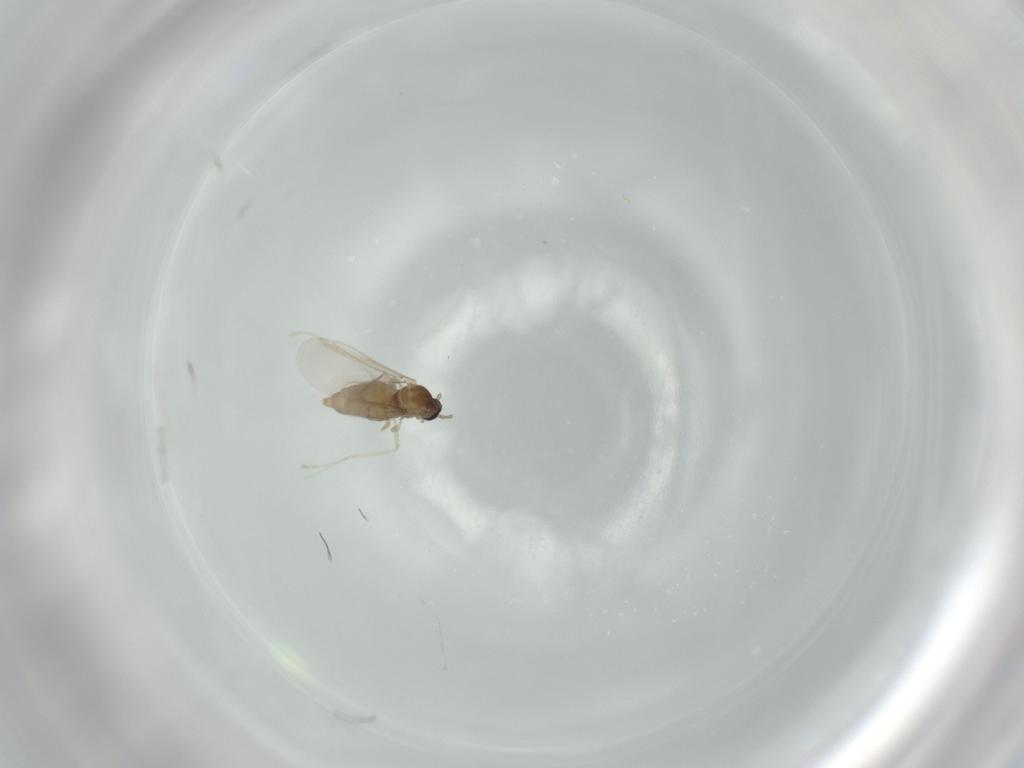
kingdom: Animalia
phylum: Arthropoda
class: Insecta
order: Diptera
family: Cecidomyiidae
